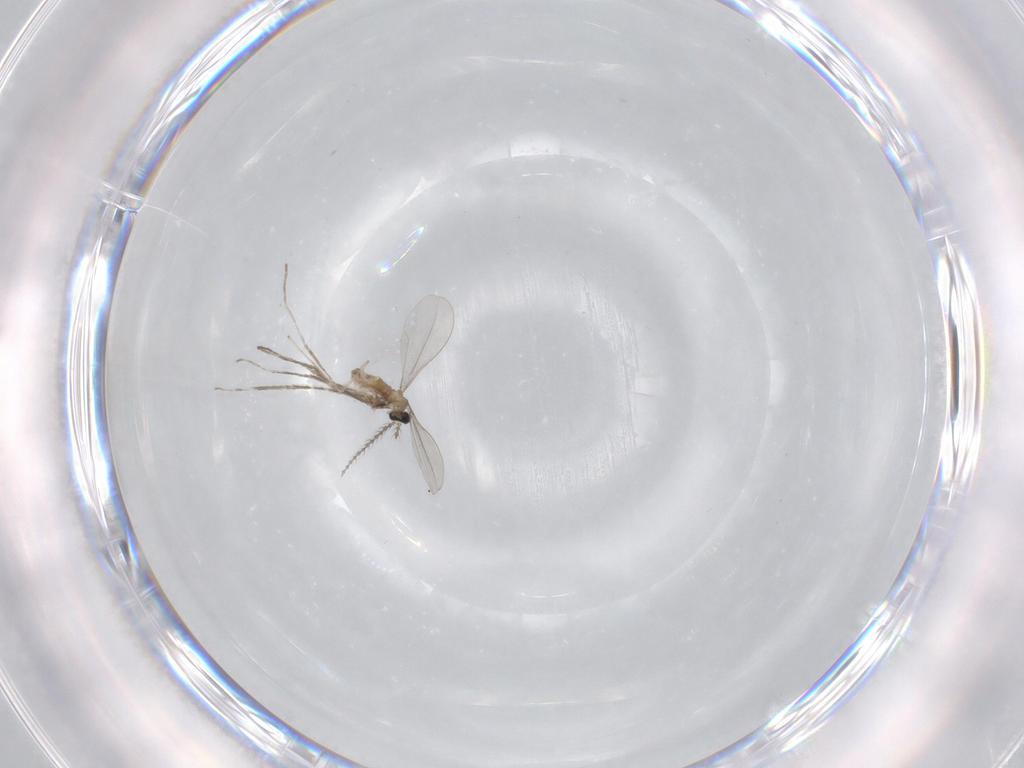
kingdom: Animalia
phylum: Arthropoda
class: Insecta
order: Diptera
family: Cecidomyiidae
